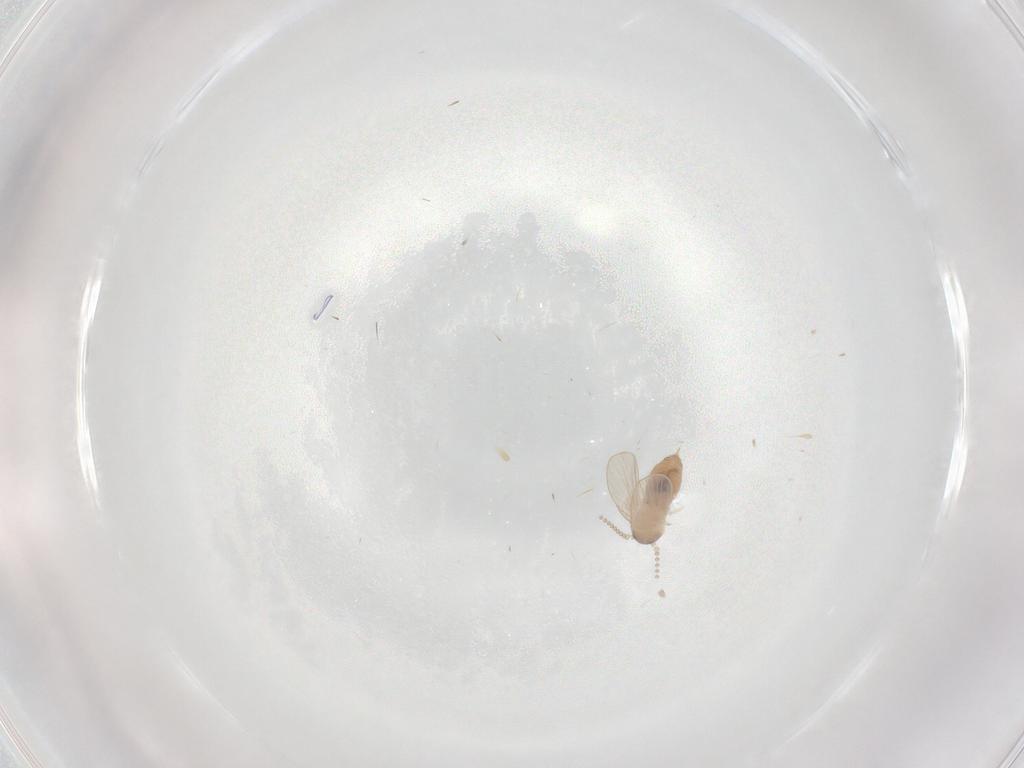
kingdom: Animalia
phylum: Arthropoda
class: Insecta
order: Diptera
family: Psychodidae
